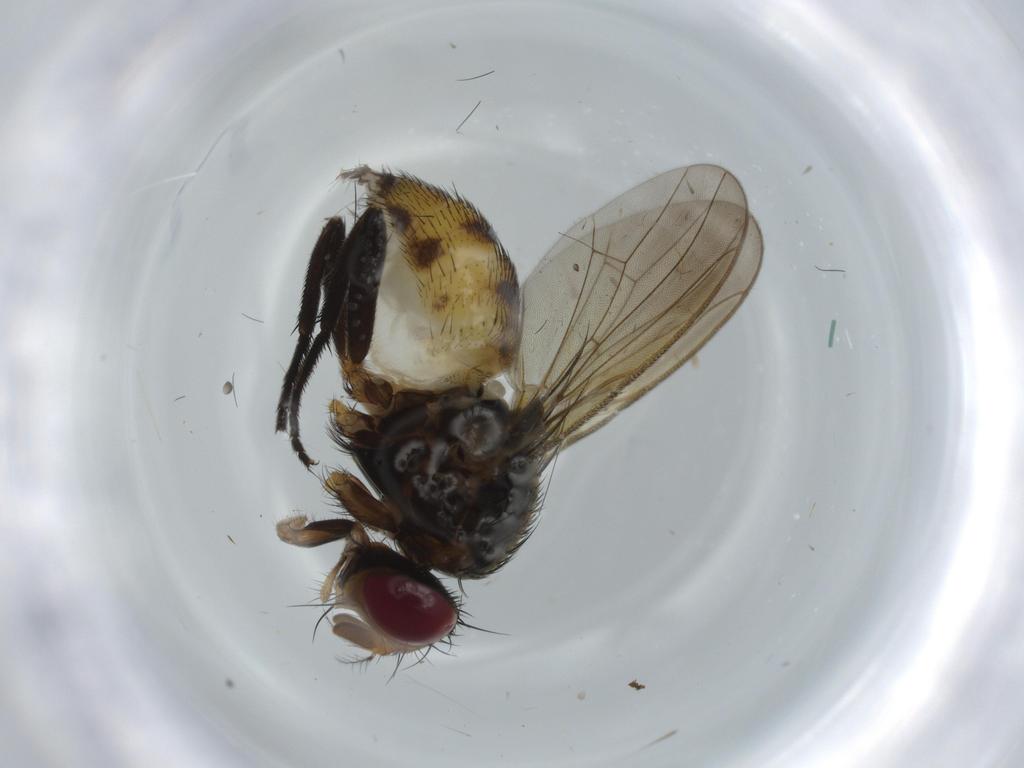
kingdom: Animalia
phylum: Arthropoda
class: Insecta
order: Diptera
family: Anthomyiidae
